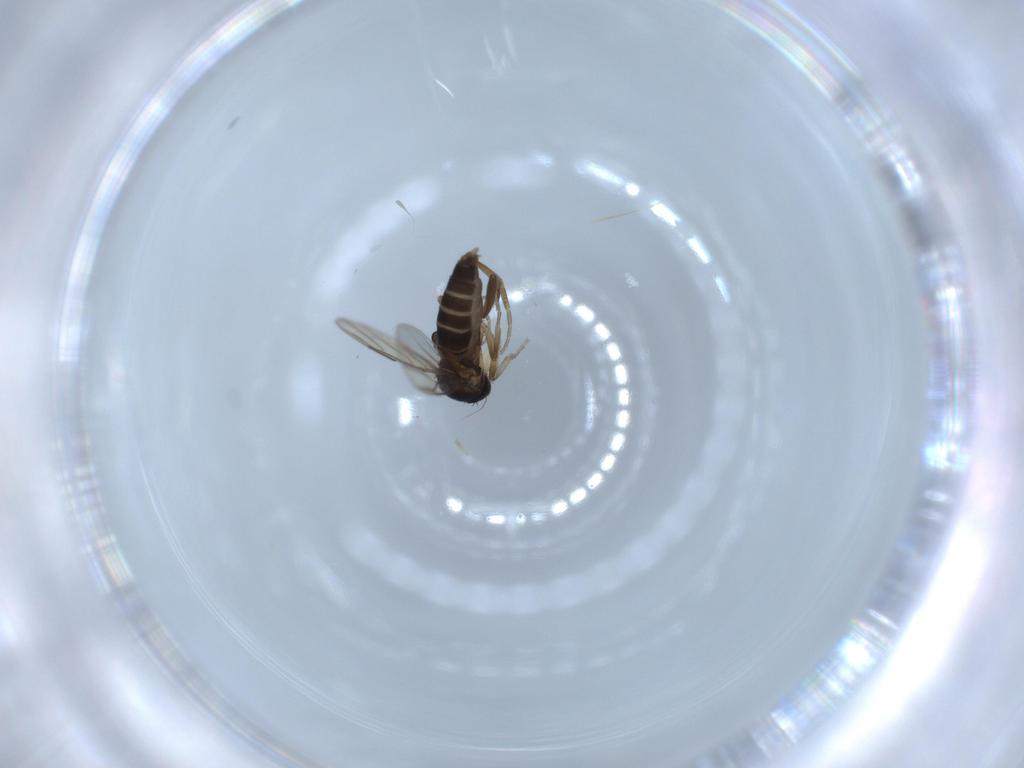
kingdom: Animalia
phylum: Arthropoda
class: Insecta
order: Diptera
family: Phoridae
